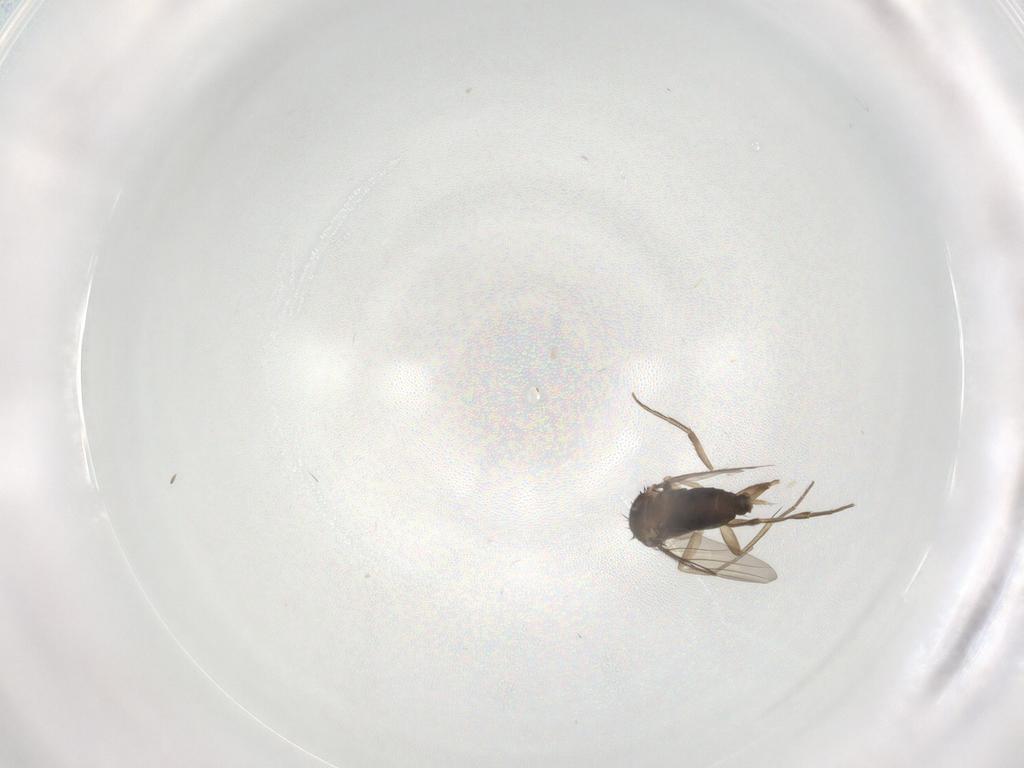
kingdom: Animalia
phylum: Arthropoda
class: Insecta
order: Diptera
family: Phoridae
